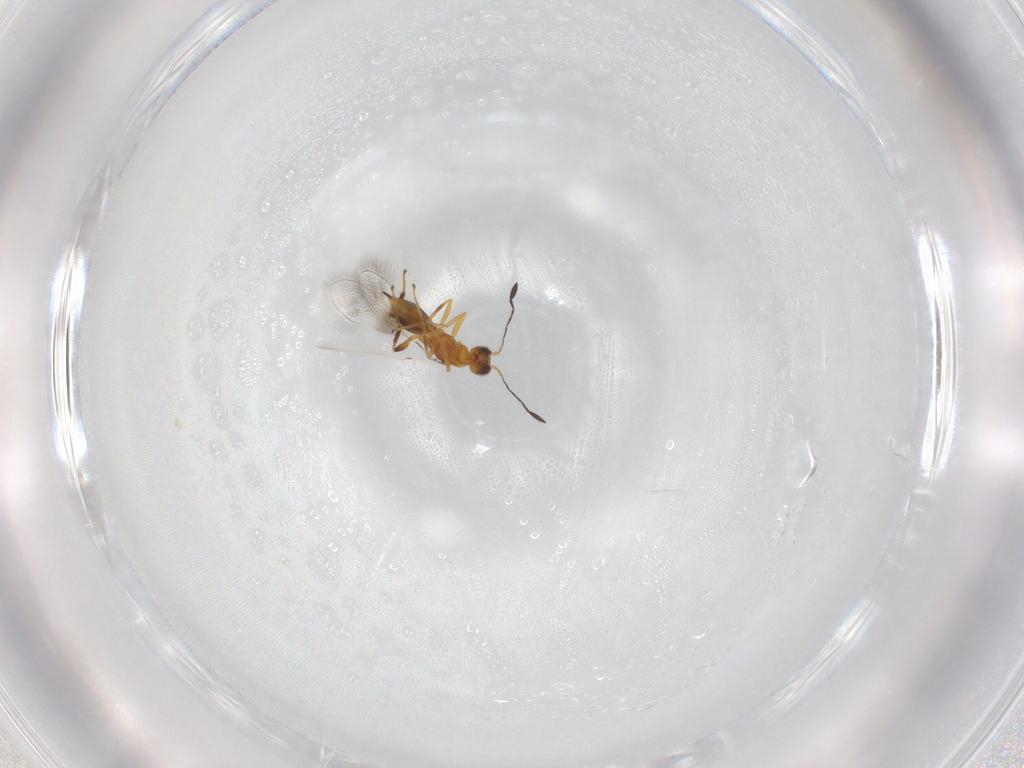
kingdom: Animalia
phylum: Arthropoda
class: Insecta
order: Hymenoptera
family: Mymaridae
